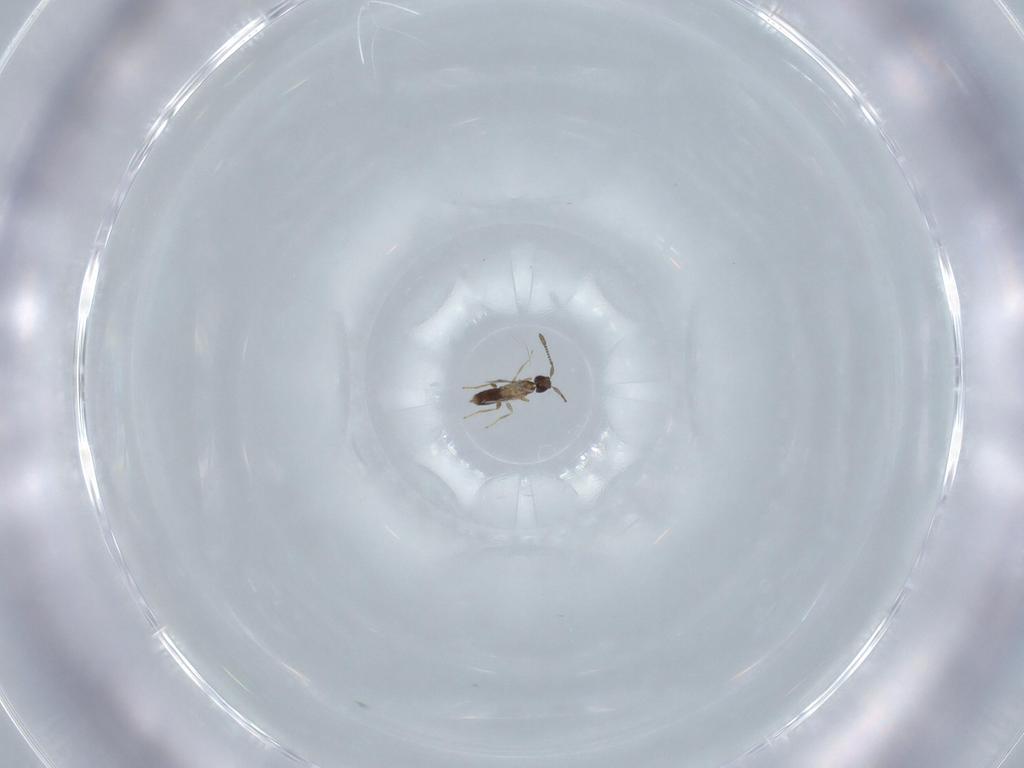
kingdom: Animalia
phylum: Arthropoda
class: Insecta
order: Hymenoptera
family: Mymaridae
